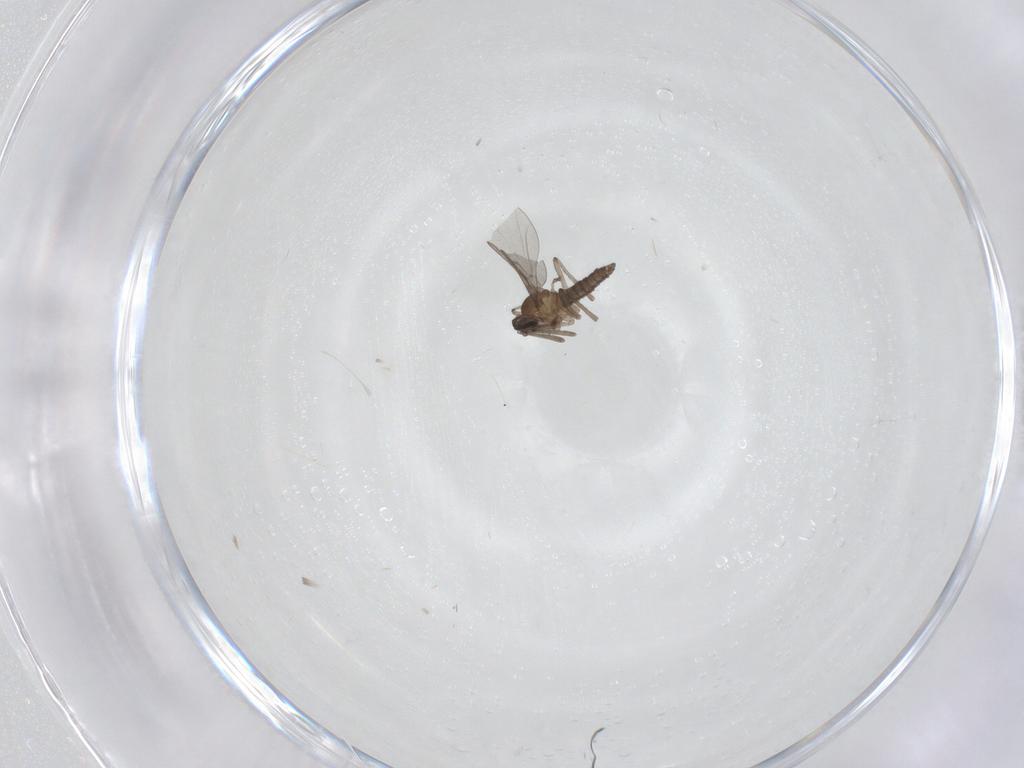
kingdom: Animalia
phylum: Arthropoda
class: Insecta
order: Diptera
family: Cecidomyiidae
